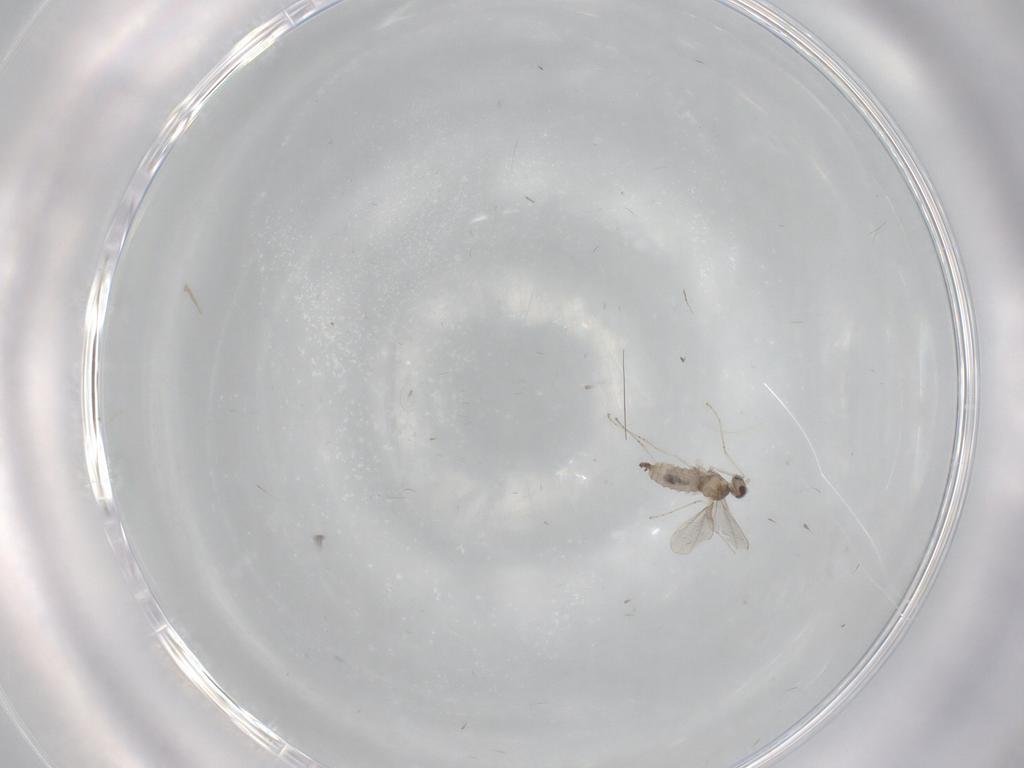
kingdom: Animalia
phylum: Arthropoda
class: Insecta
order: Diptera
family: Cecidomyiidae
